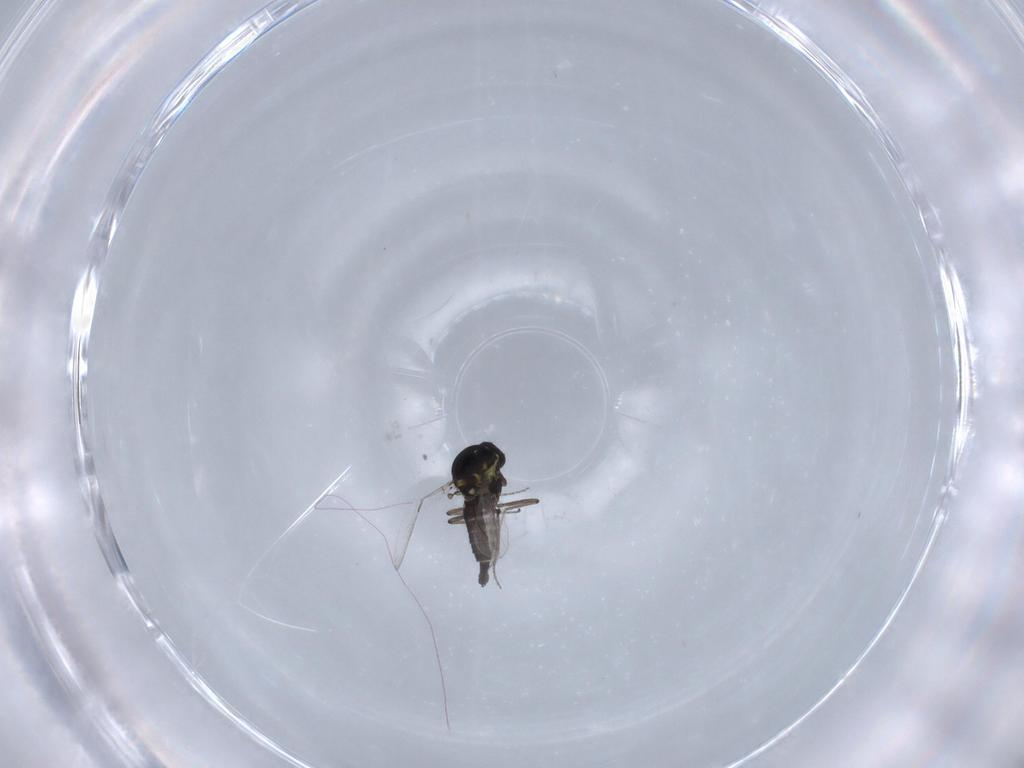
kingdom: Animalia
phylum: Arthropoda
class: Insecta
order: Diptera
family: Ceratopogonidae
